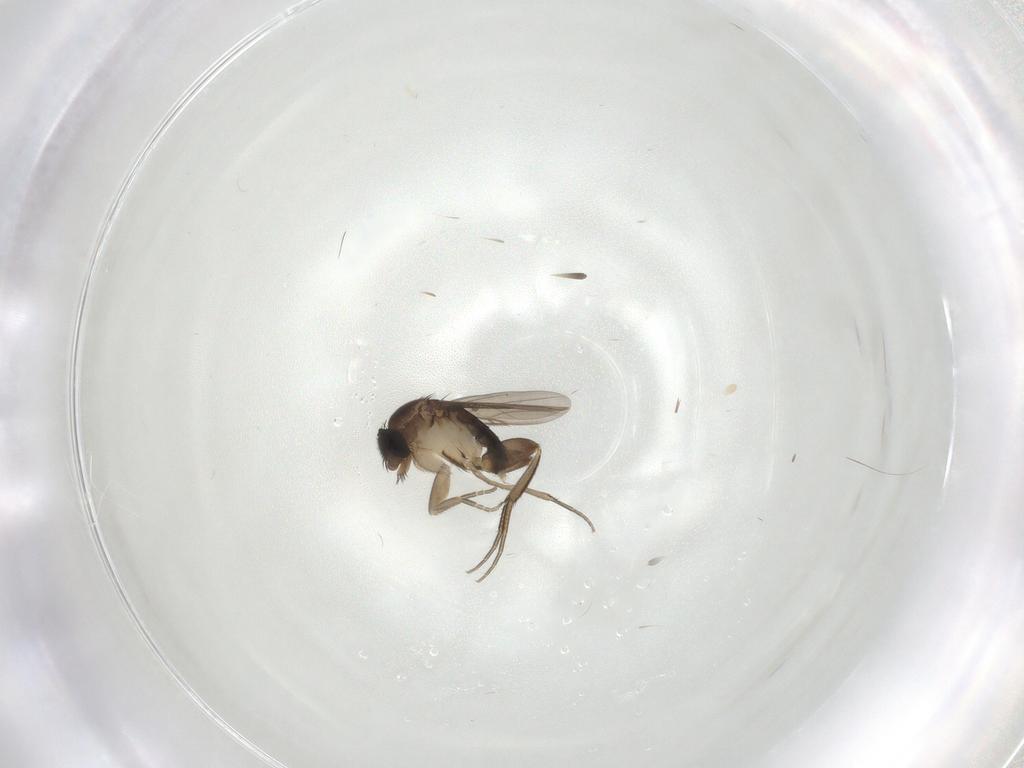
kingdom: Animalia
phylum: Arthropoda
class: Insecta
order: Diptera
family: Phoridae
